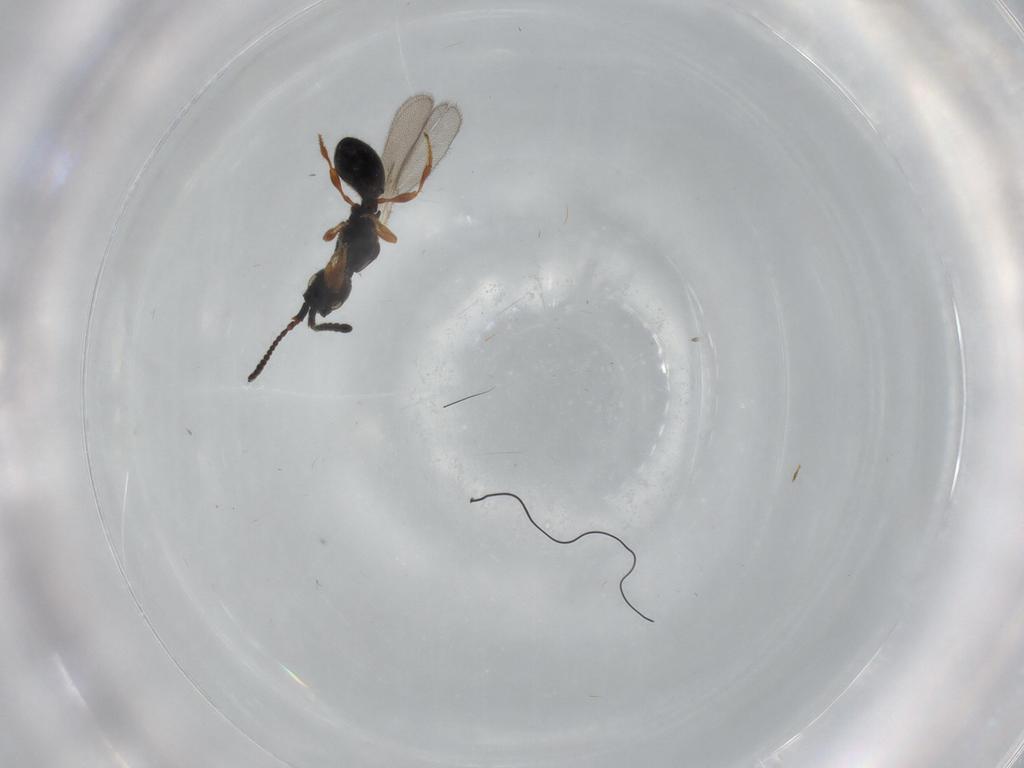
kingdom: Animalia
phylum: Arthropoda
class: Insecta
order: Hymenoptera
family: Diapriidae
